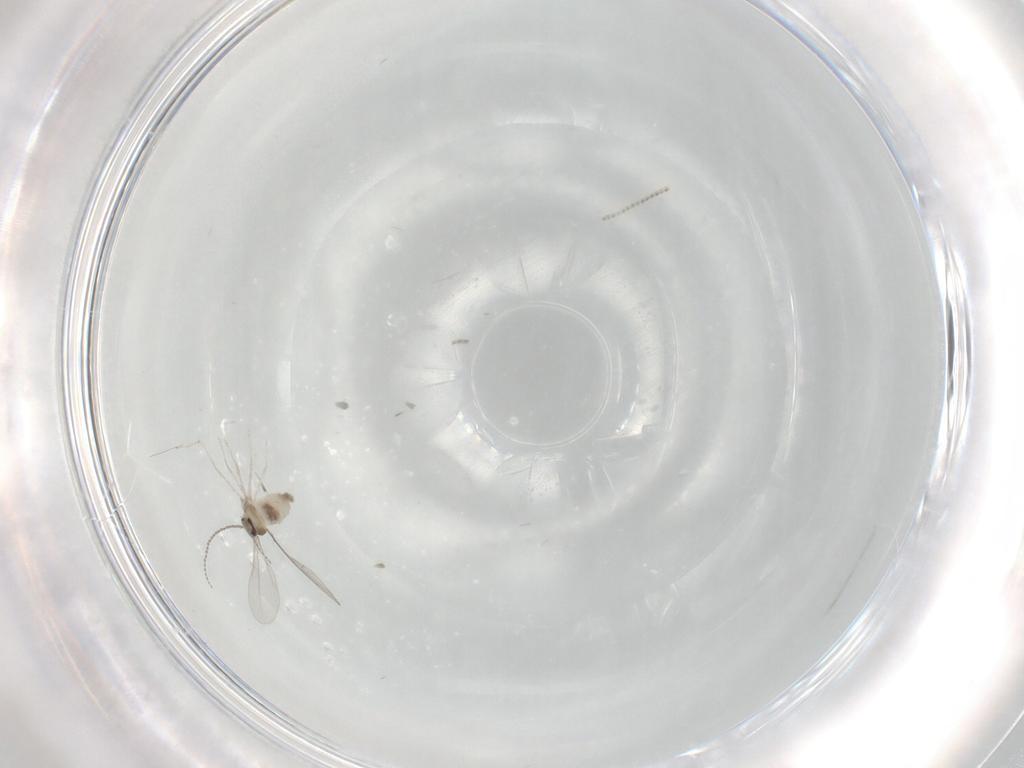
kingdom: Animalia
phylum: Arthropoda
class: Insecta
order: Diptera
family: Cecidomyiidae
